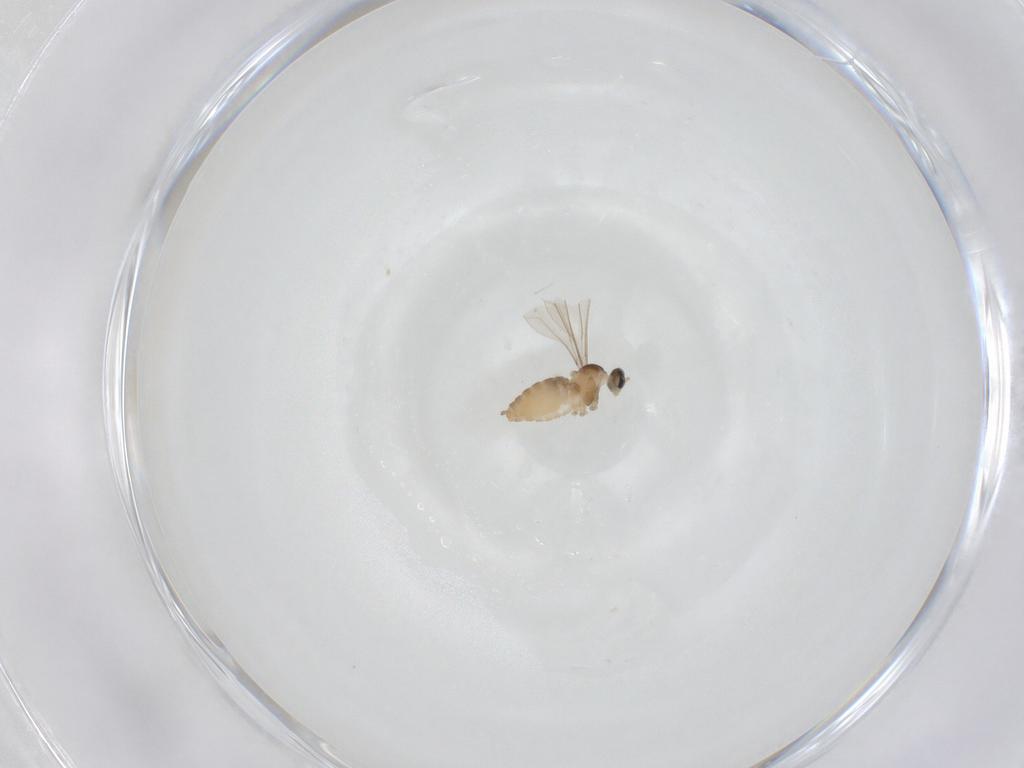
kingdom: Animalia
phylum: Arthropoda
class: Insecta
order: Diptera
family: Cecidomyiidae
